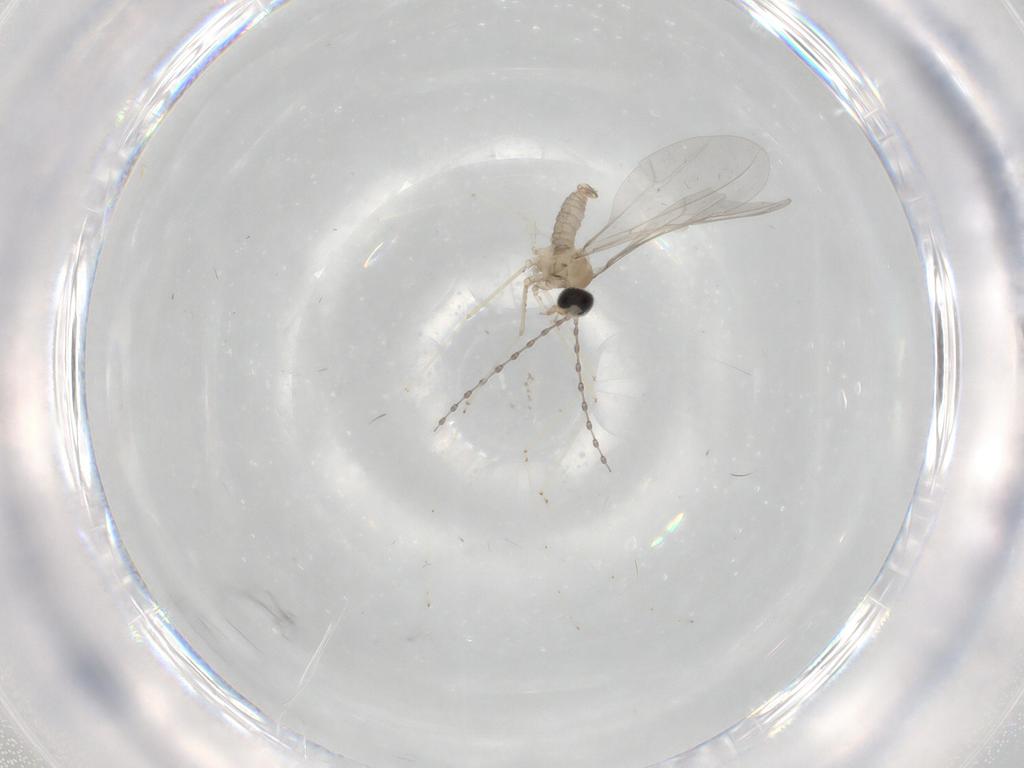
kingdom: Animalia
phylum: Arthropoda
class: Insecta
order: Diptera
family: Cecidomyiidae
